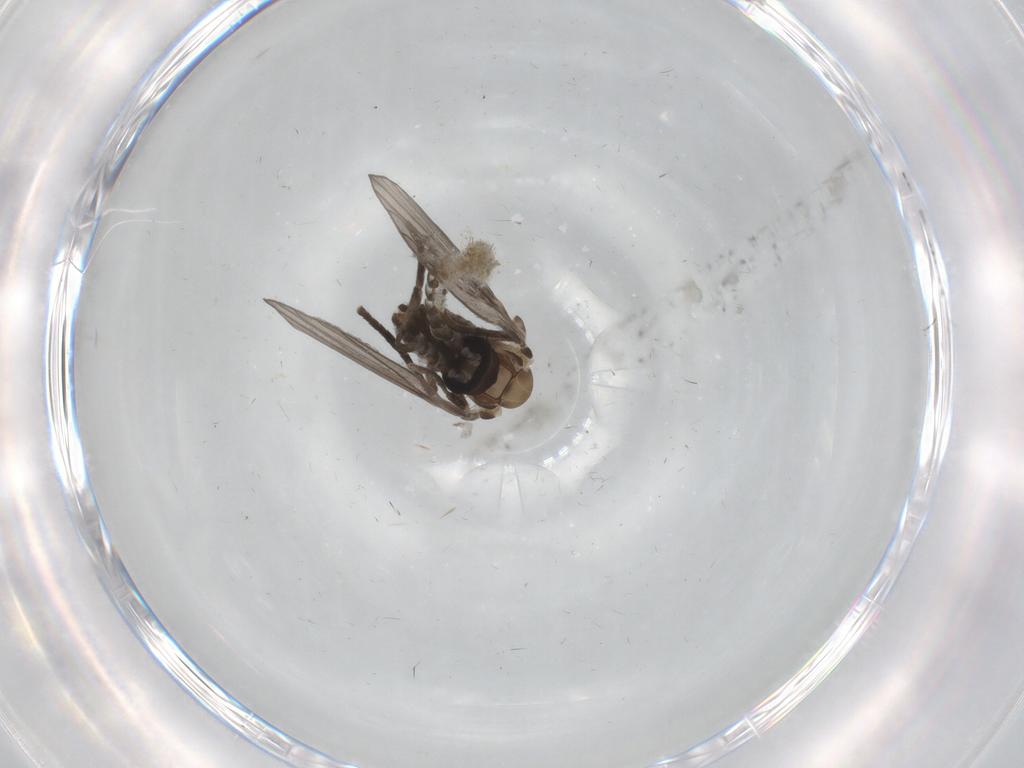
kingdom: Animalia
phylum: Arthropoda
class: Insecta
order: Diptera
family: Psychodidae
